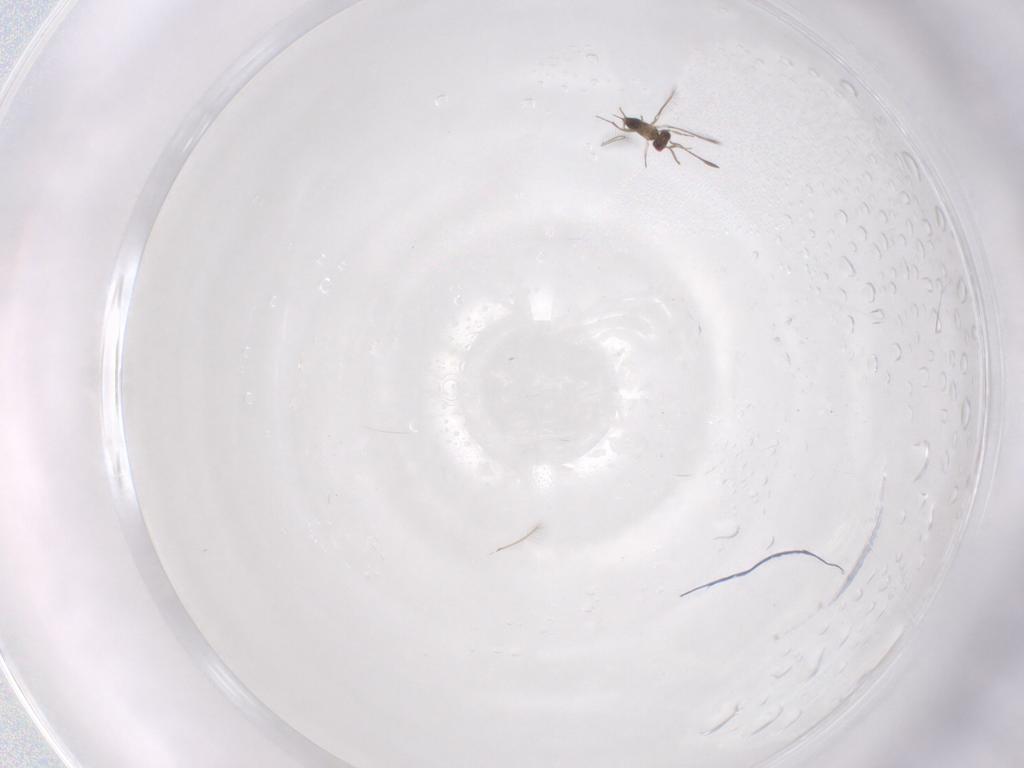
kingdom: Animalia
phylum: Arthropoda
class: Insecta
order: Hymenoptera
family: Mymaridae
